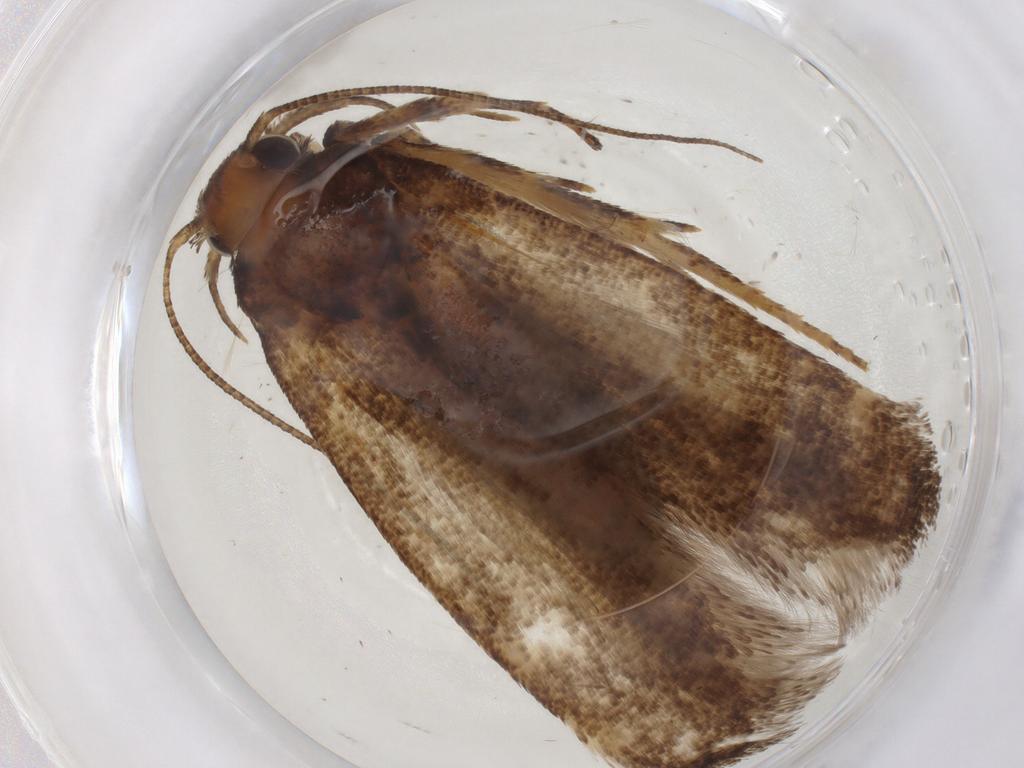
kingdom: Animalia
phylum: Arthropoda
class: Insecta
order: Lepidoptera
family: Gelechiidae
